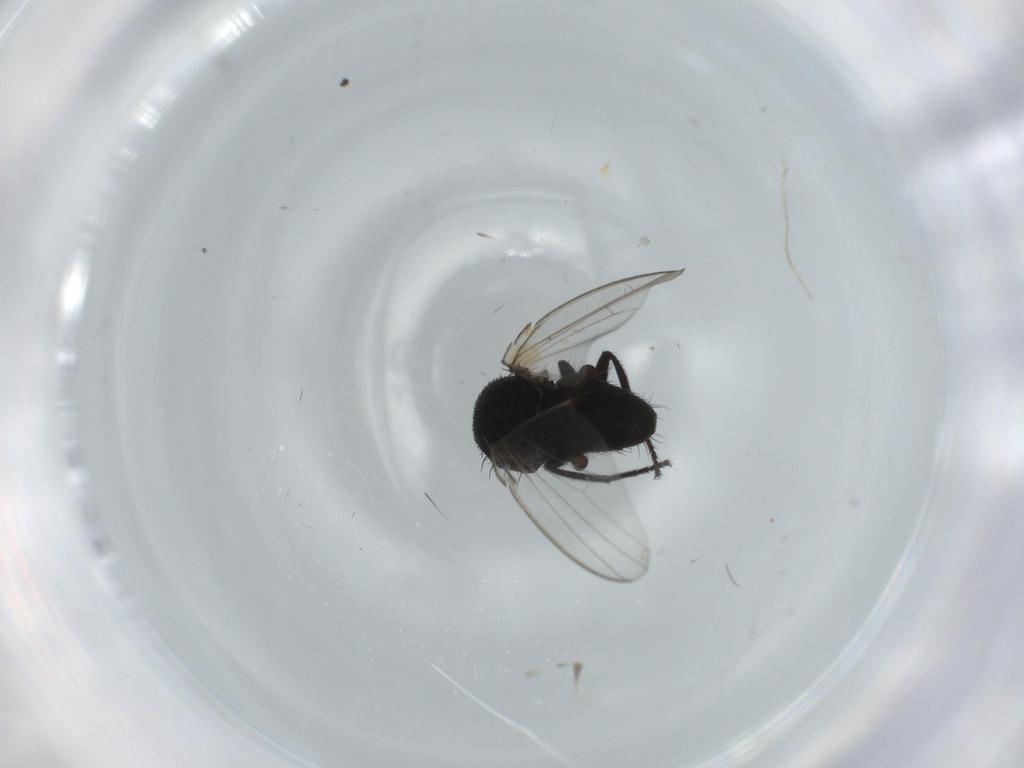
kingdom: Animalia
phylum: Arthropoda
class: Insecta
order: Diptera
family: Milichiidae
